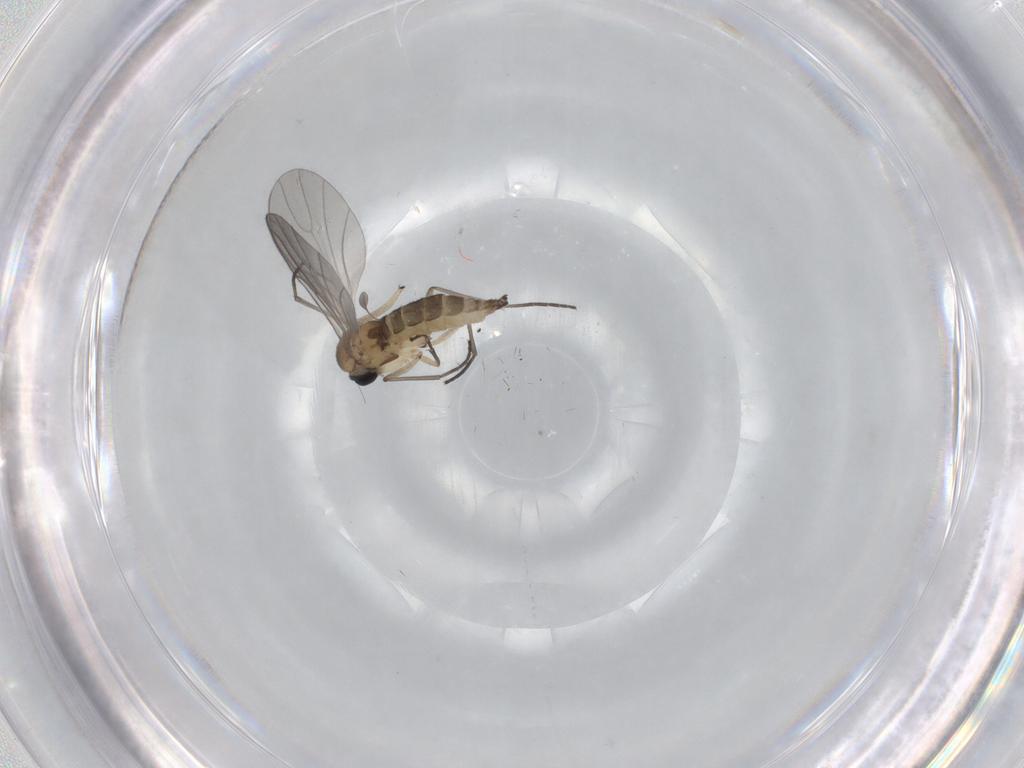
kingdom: Animalia
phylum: Arthropoda
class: Insecta
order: Diptera
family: Sciaridae
